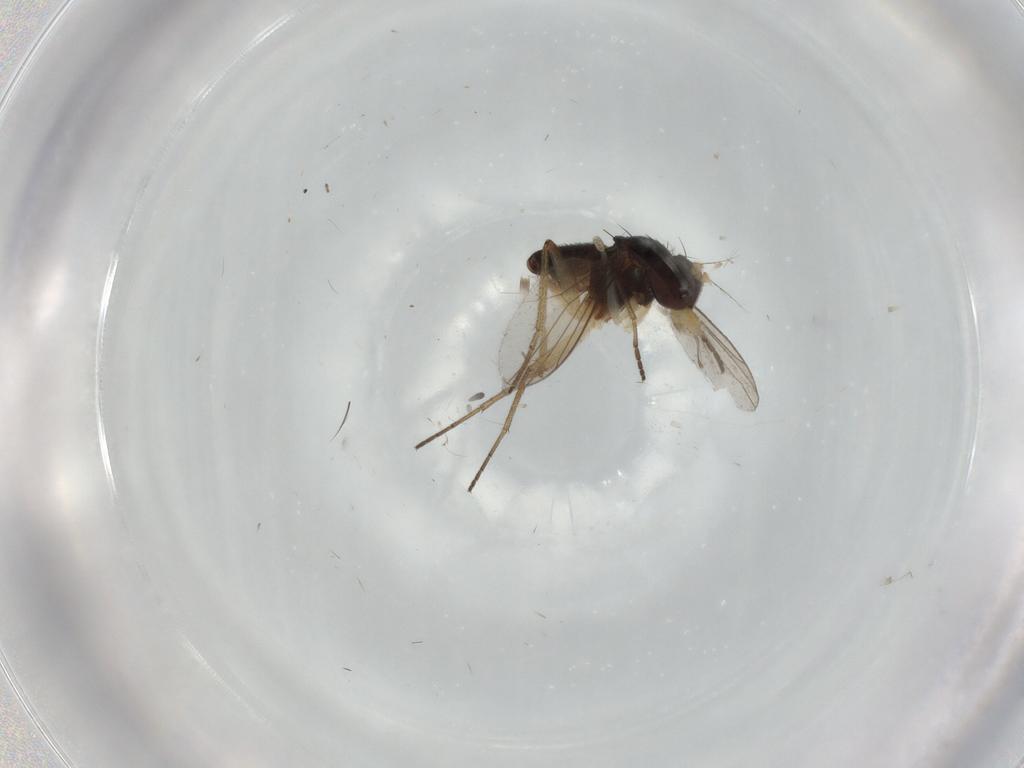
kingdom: Animalia
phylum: Arthropoda
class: Insecta
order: Diptera
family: Dolichopodidae
